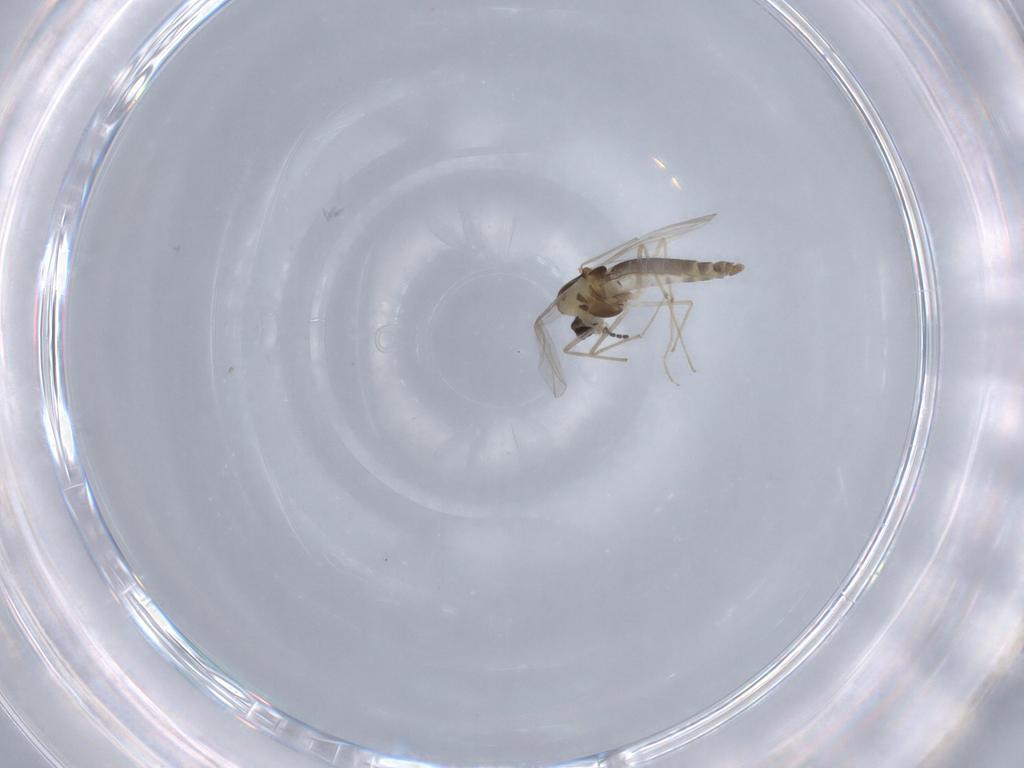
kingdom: Animalia
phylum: Arthropoda
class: Insecta
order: Diptera
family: Chironomidae
